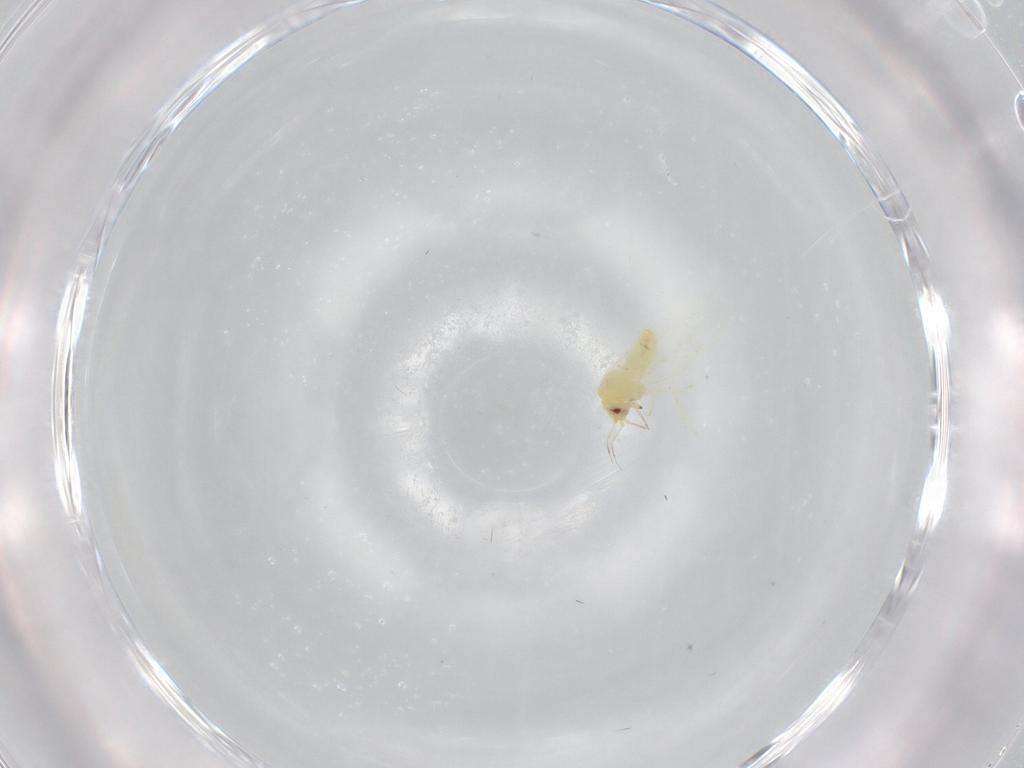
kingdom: Animalia
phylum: Arthropoda
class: Insecta
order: Hemiptera
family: Aleyrodidae
